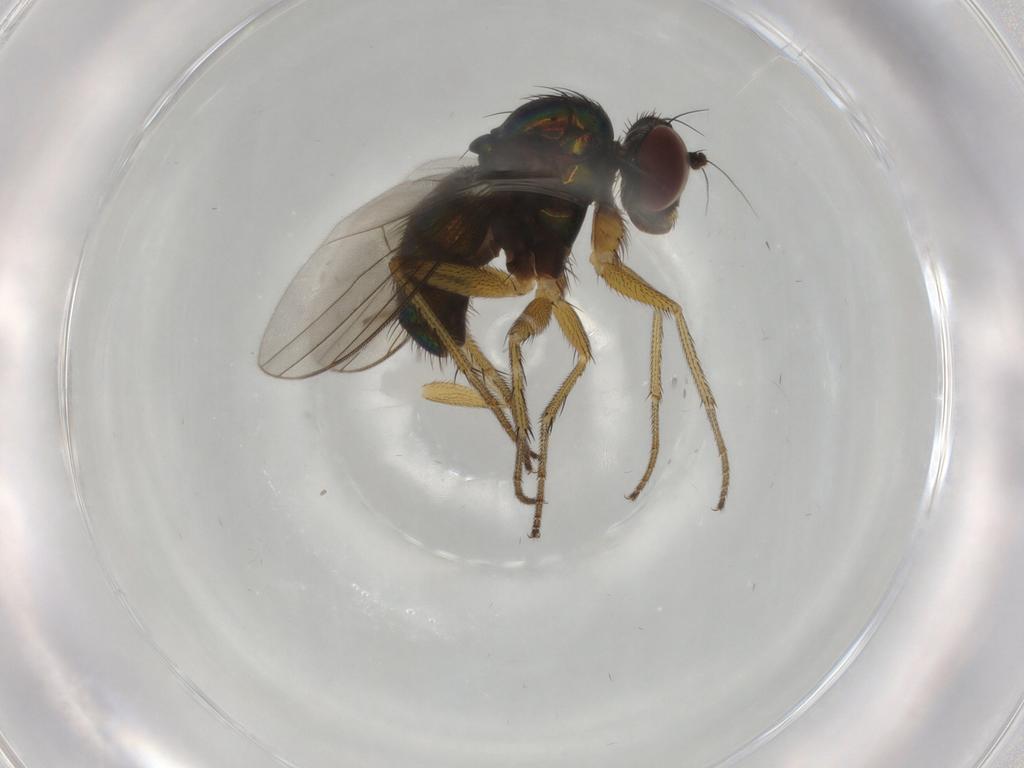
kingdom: Animalia
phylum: Arthropoda
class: Insecta
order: Diptera
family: Dolichopodidae
